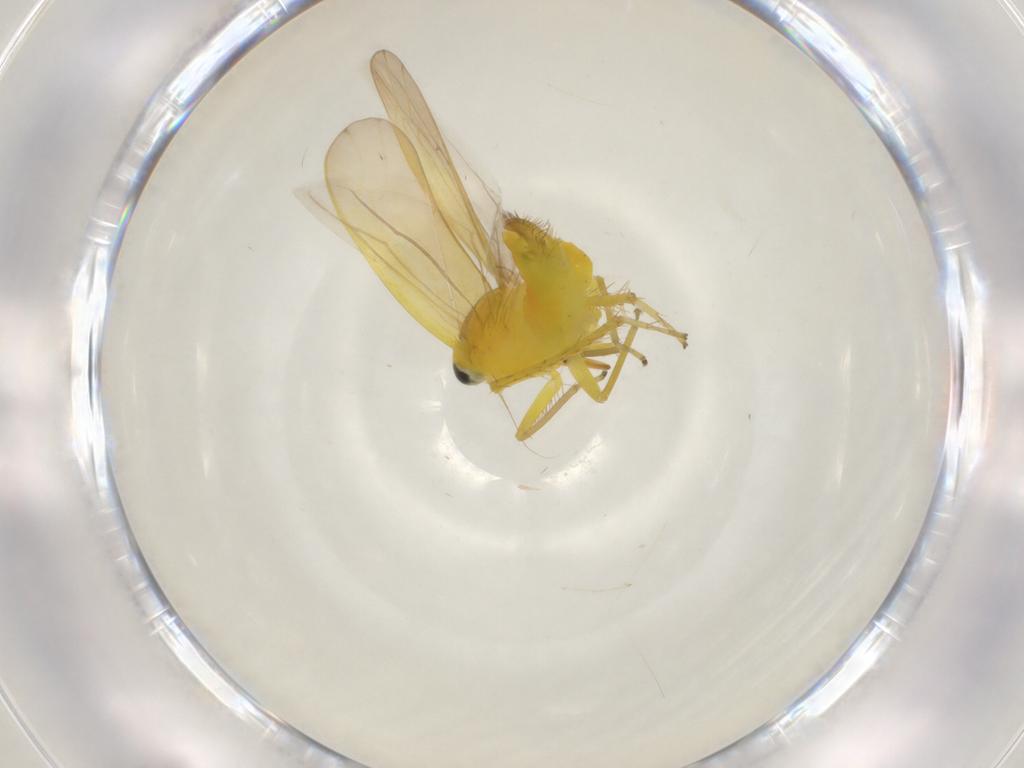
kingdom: Animalia
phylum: Arthropoda
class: Insecta
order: Hemiptera
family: Cicadellidae
